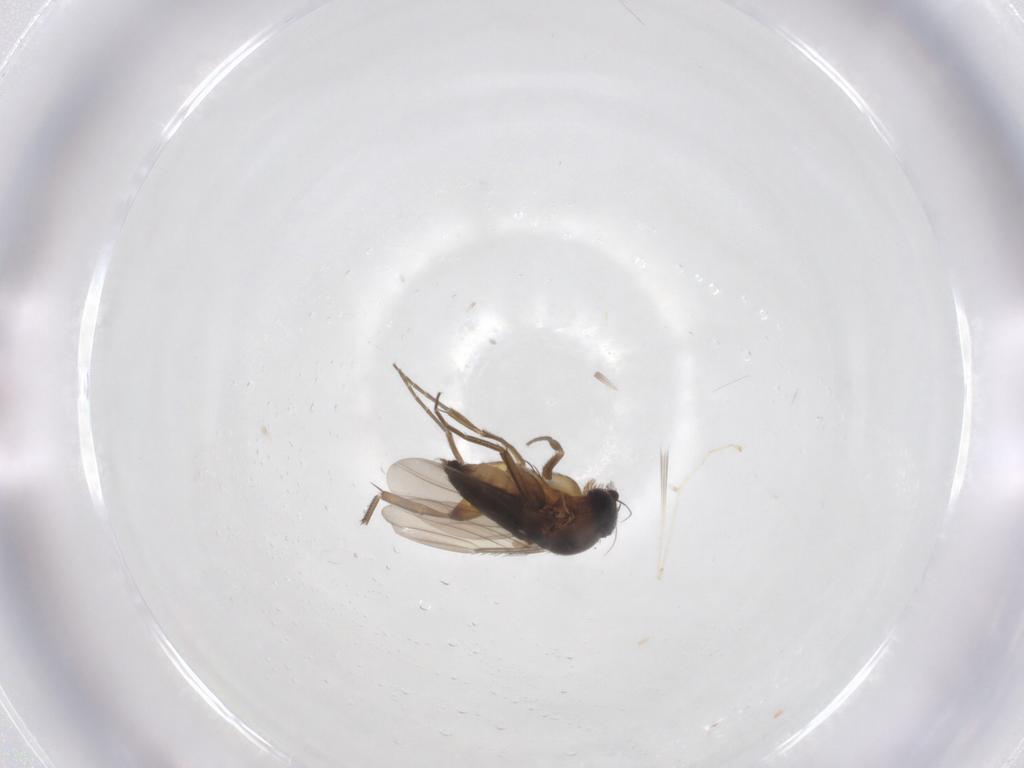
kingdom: Animalia
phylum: Arthropoda
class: Insecta
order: Diptera
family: Phoridae
